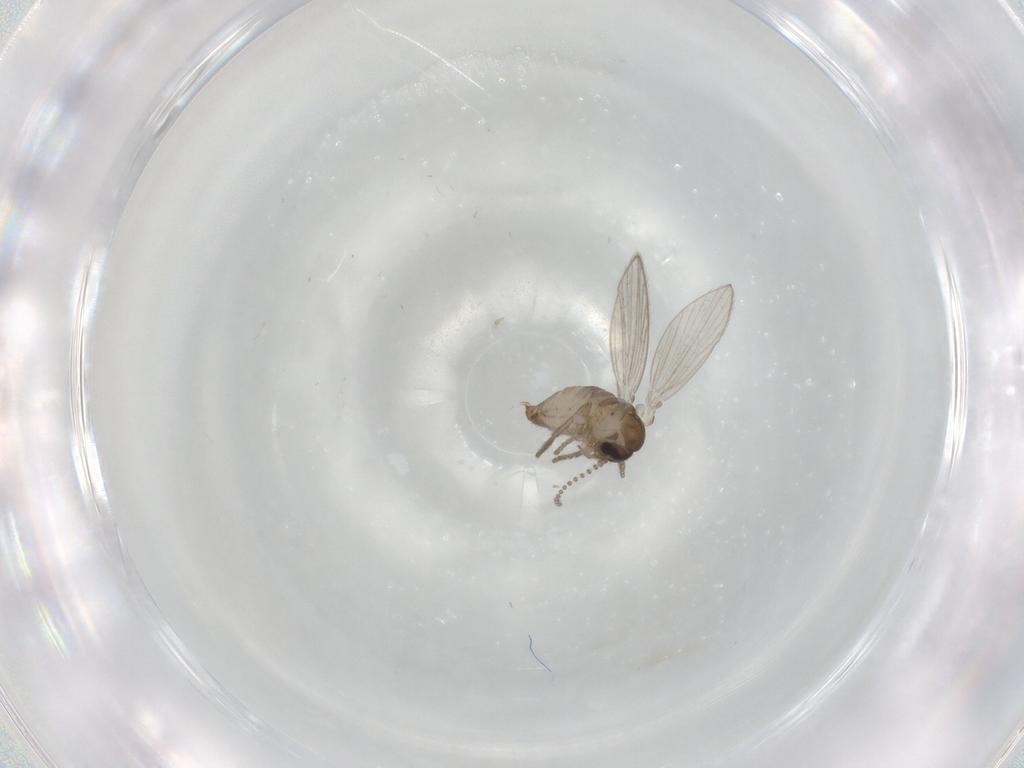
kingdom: Animalia
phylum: Arthropoda
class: Insecta
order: Diptera
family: Psychodidae
